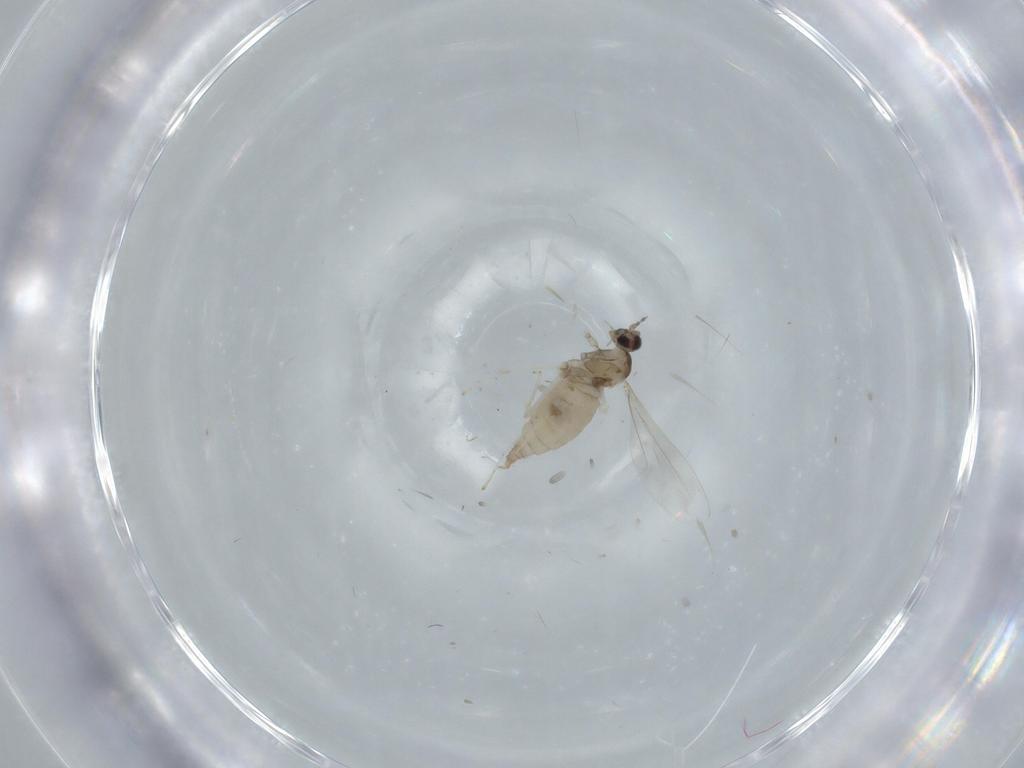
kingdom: Animalia
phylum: Arthropoda
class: Insecta
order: Diptera
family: Cecidomyiidae
